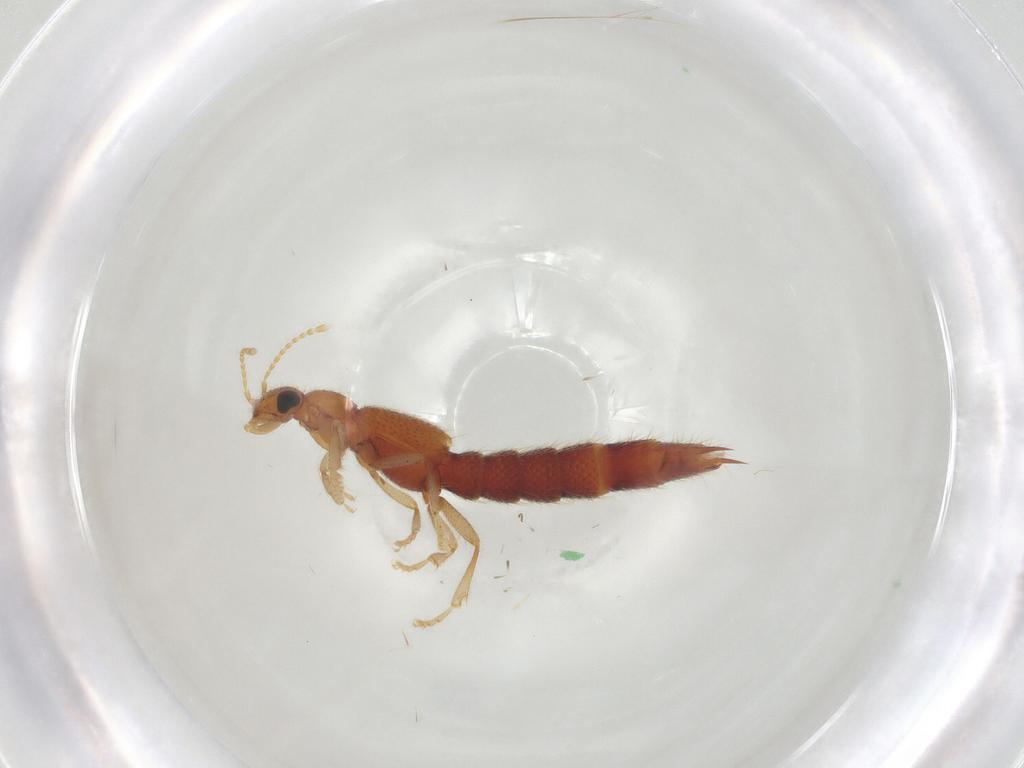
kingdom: Animalia
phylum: Arthropoda
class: Insecta
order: Coleoptera
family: Staphylinidae
